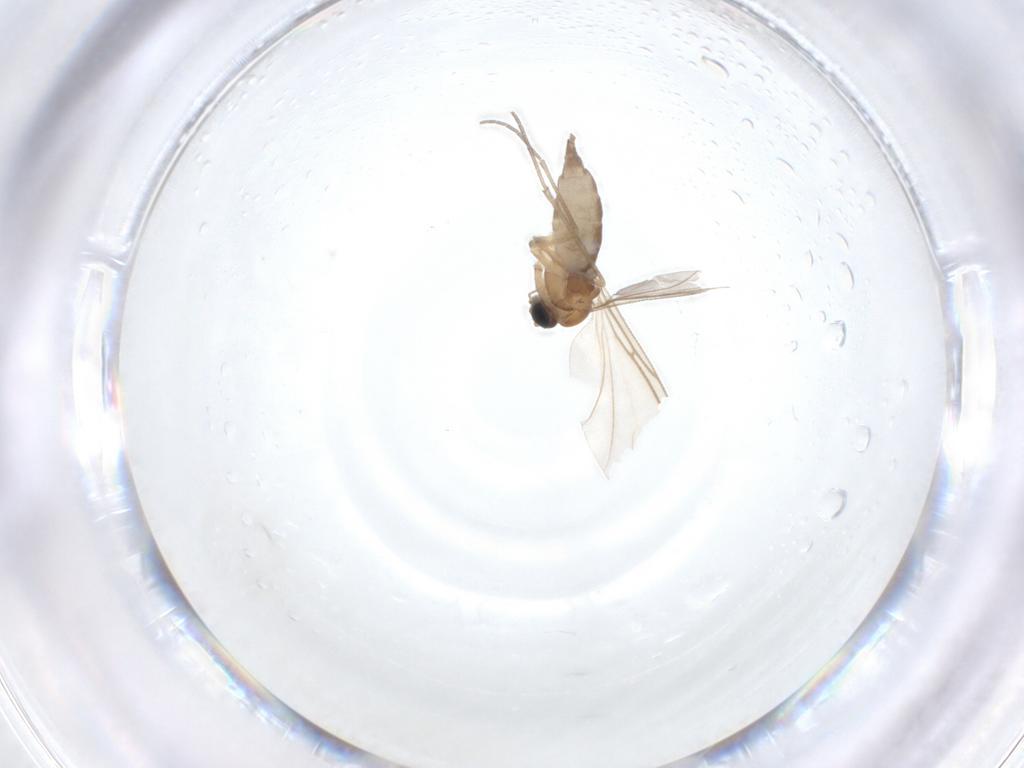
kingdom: Animalia
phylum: Arthropoda
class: Insecta
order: Diptera
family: Sciaridae
